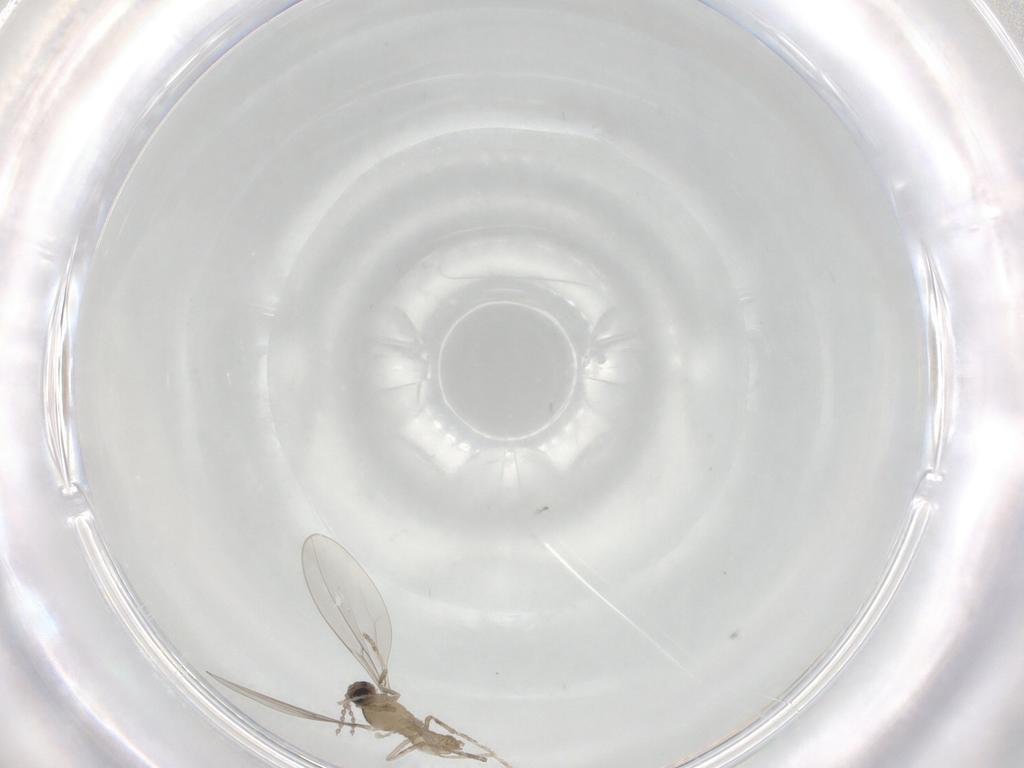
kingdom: Animalia
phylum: Arthropoda
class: Insecta
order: Diptera
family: Cecidomyiidae
